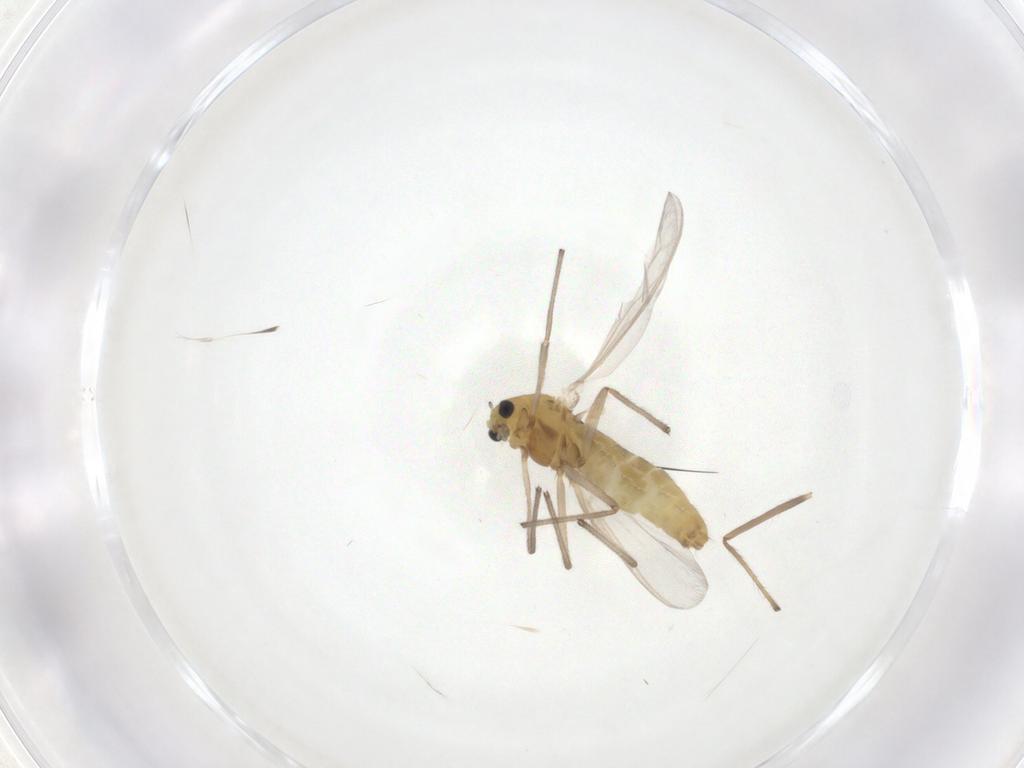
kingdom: Animalia
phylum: Arthropoda
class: Insecta
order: Diptera
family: Chironomidae
